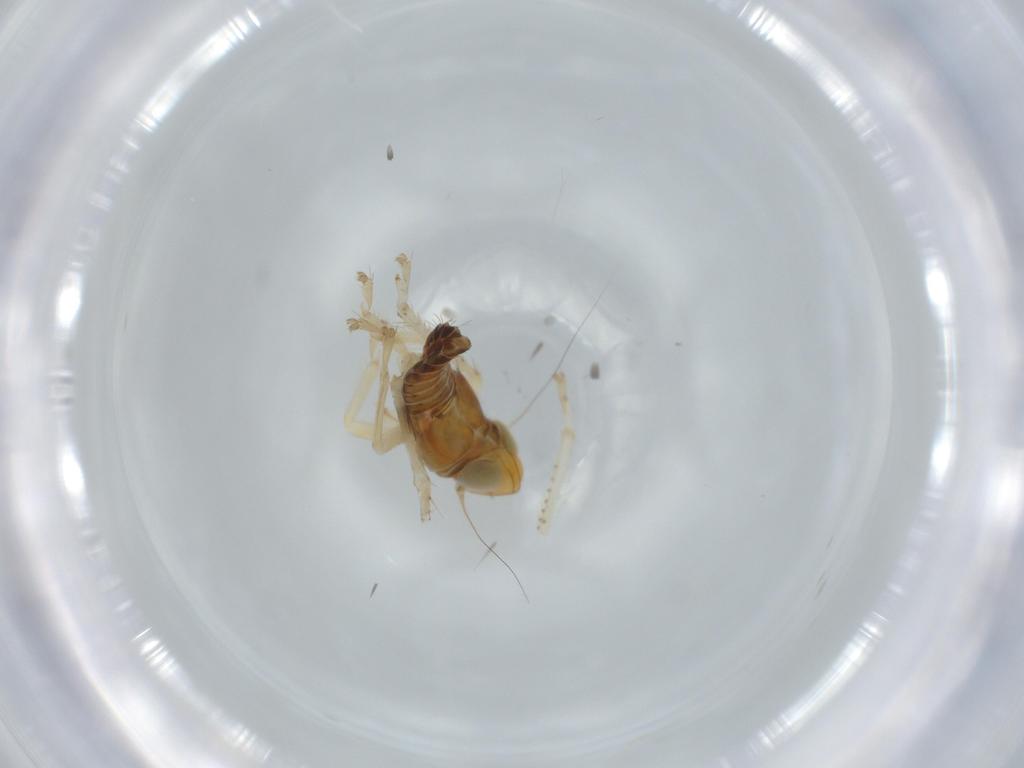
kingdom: Animalia
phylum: Arthropoda
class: Insecta
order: Hemiptera
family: Cicadellidae
